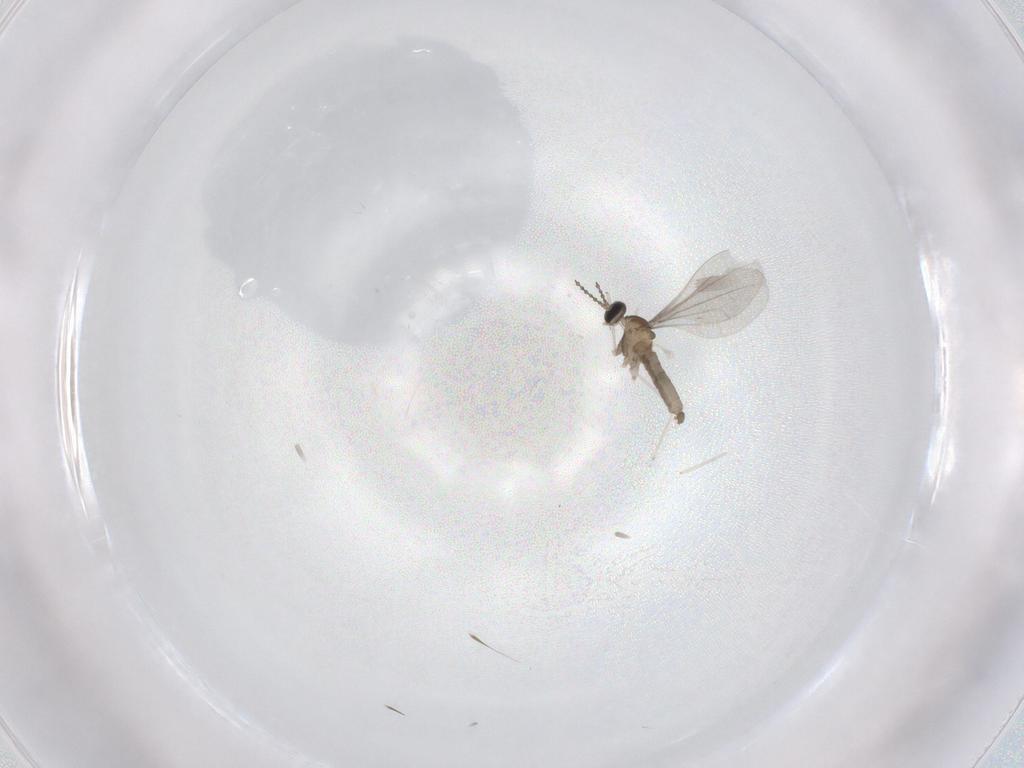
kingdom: Animalia
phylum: Arthropoda
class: Insecta
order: Diptera
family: Cecidomyiidae
